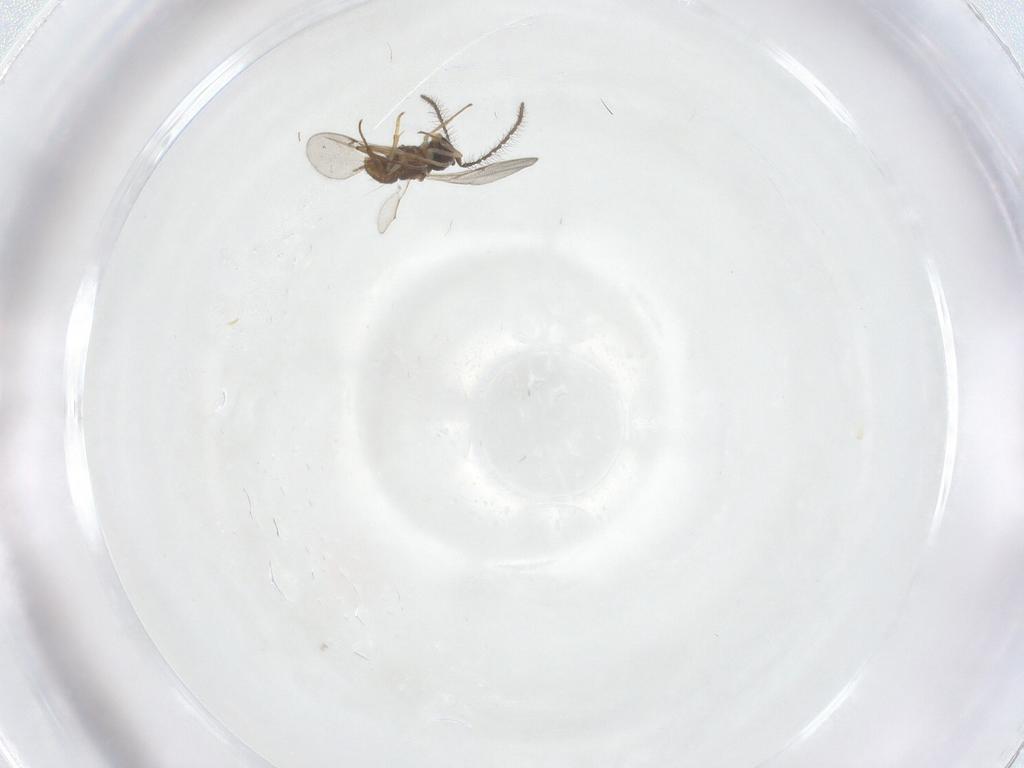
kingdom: Animalia
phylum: Arthropoda
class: Insecta
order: Hymenoptera
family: Encyrtidae
